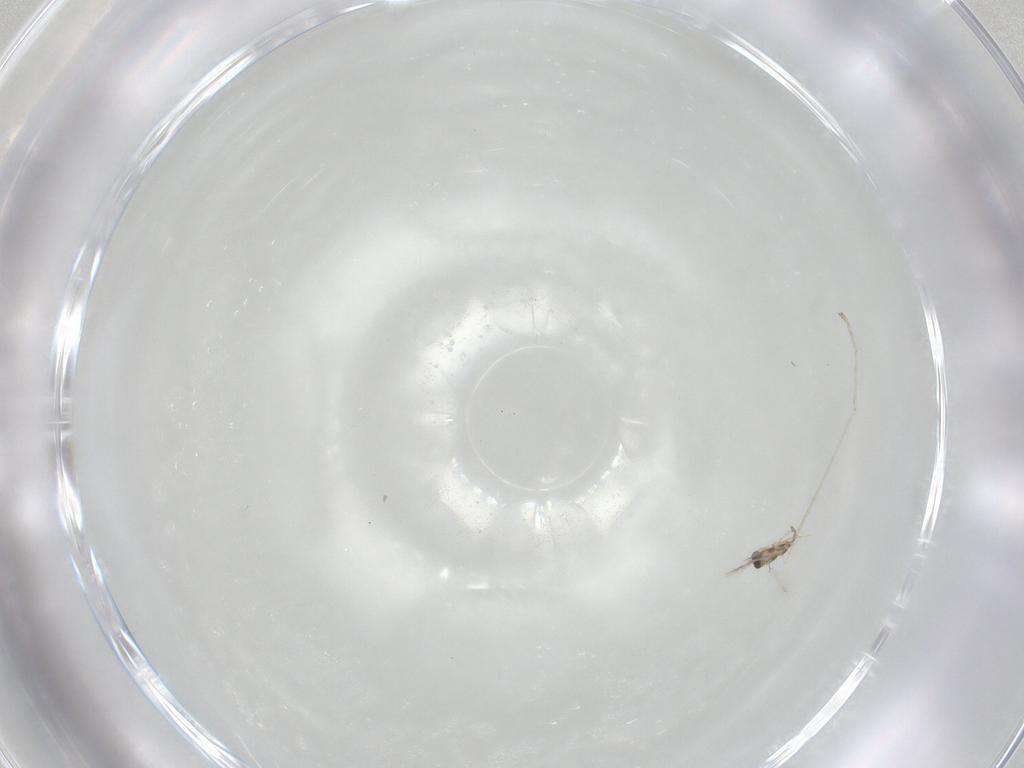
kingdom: Animalia
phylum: Arthropoda
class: Insecta
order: Neuroptera
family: Chrysopidae
